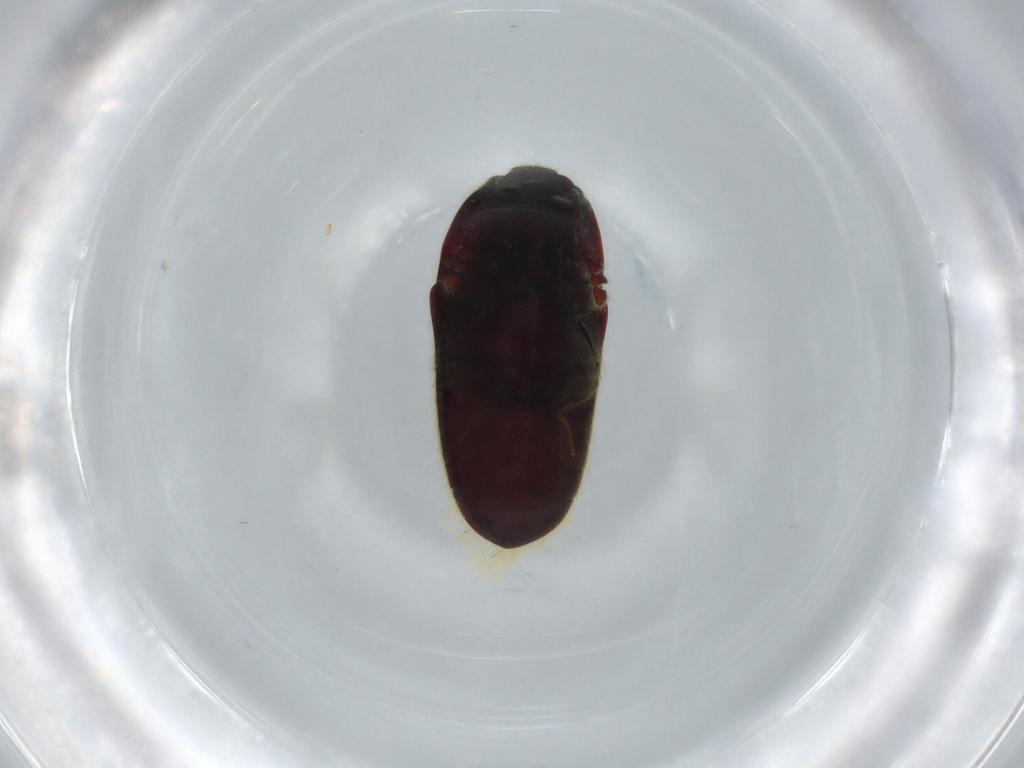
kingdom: Animalia
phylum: Arthropoda
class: Insecta
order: Coleoptera
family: Throscidae
